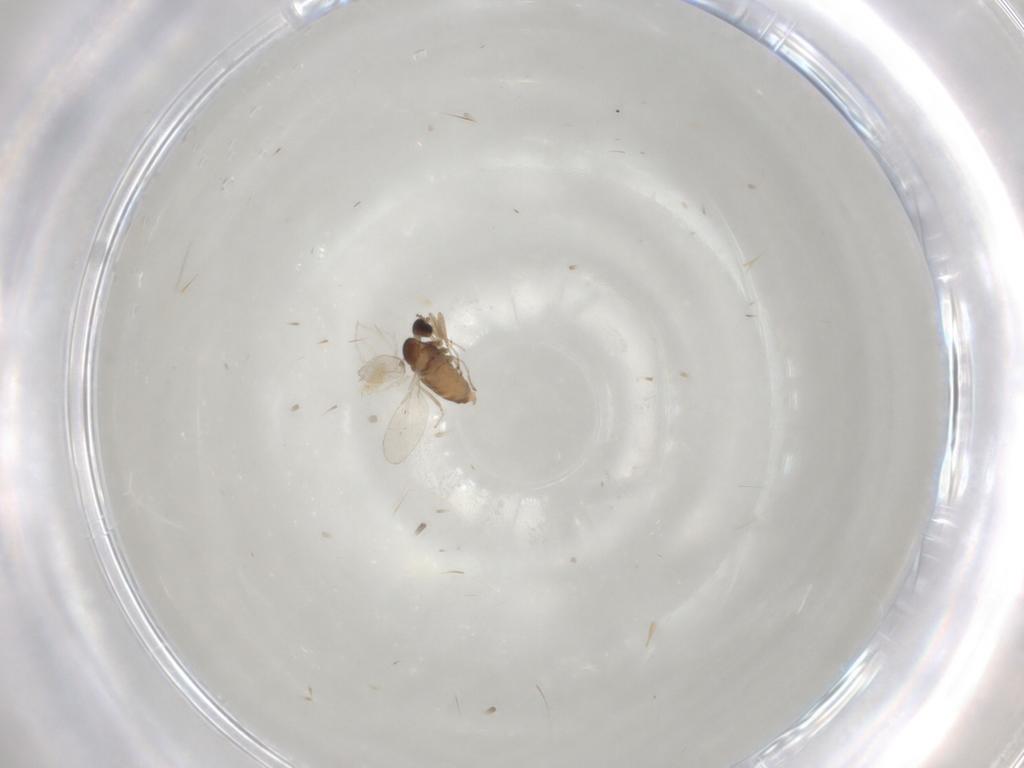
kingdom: Animalia
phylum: Arthropoda
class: Insecta
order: Diptera
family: Cecidomyiidae
